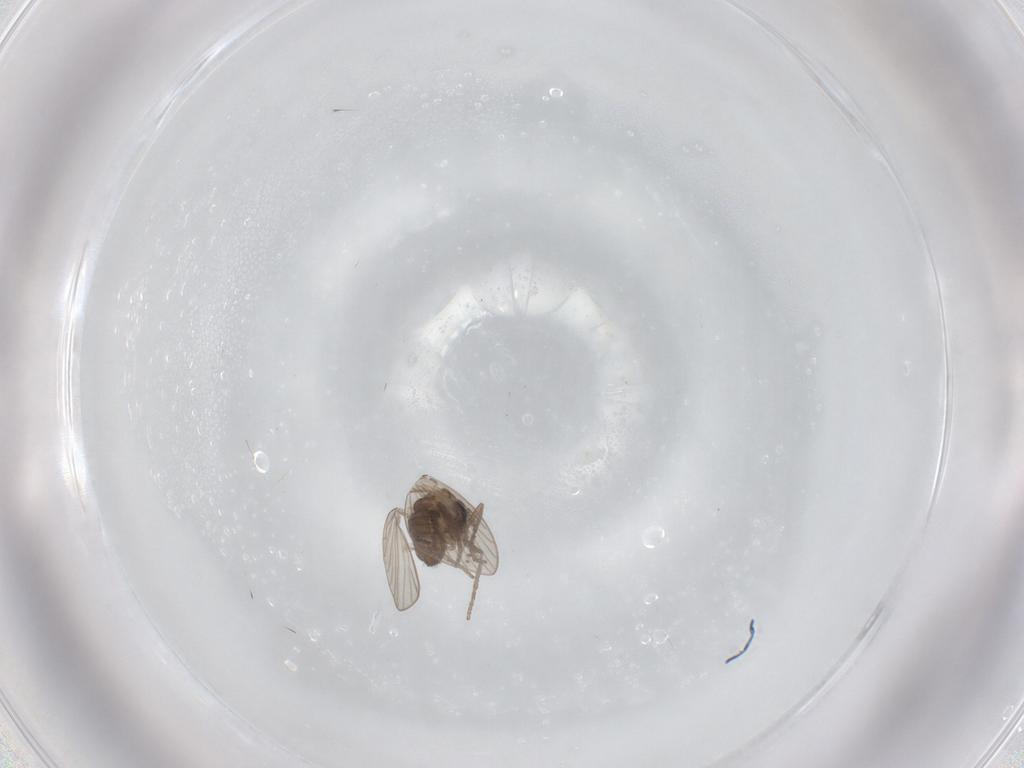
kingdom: Animalia
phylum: Arthropoda
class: Insecta
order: Diptera
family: Psychodidae
